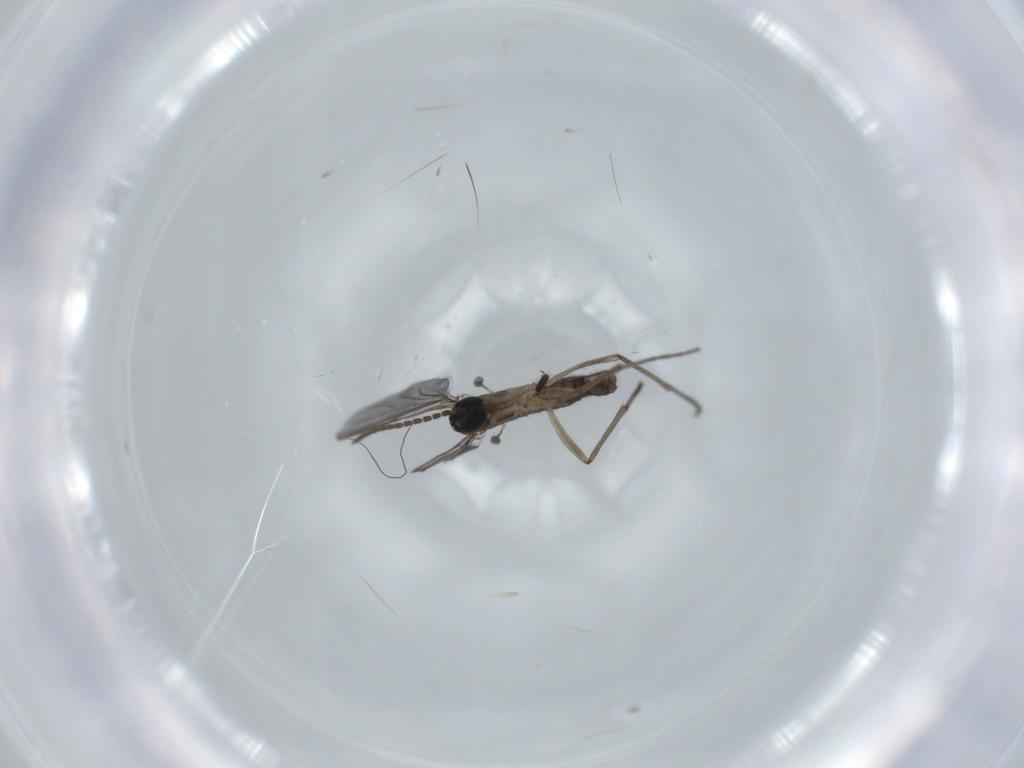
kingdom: Animalia
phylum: Arthropoda
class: Insecta
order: Diptera
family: Sciaridae
